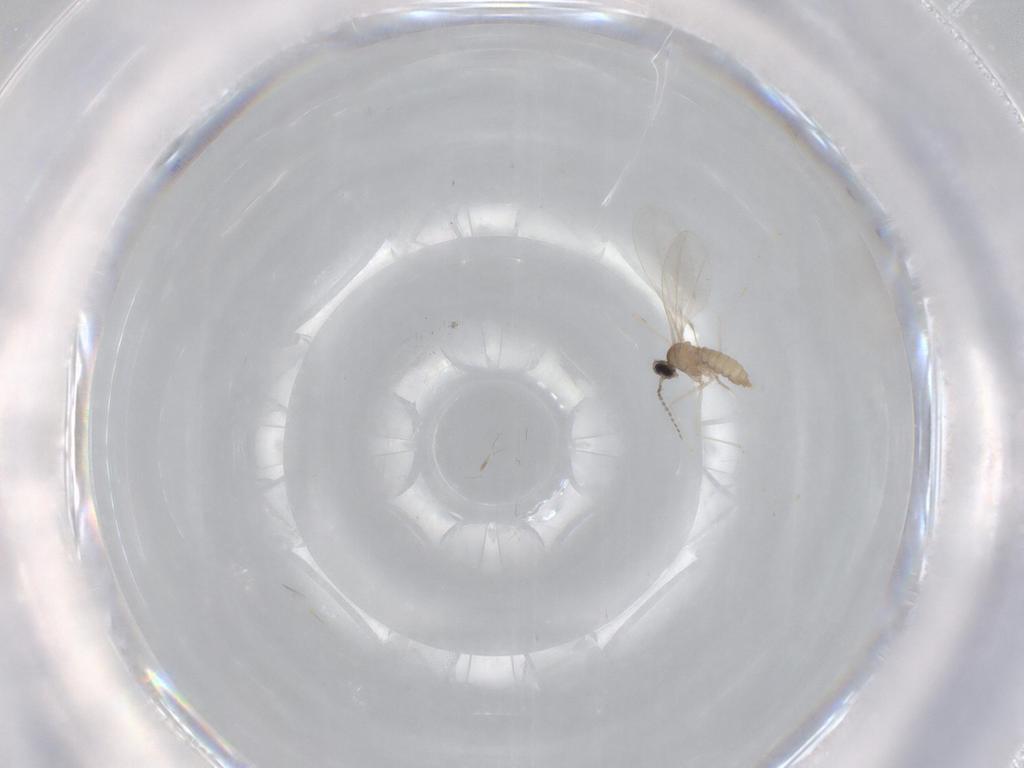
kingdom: Animalia
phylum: Arthropoda
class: Insecta
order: Diptera
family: Cecidomyiidae
